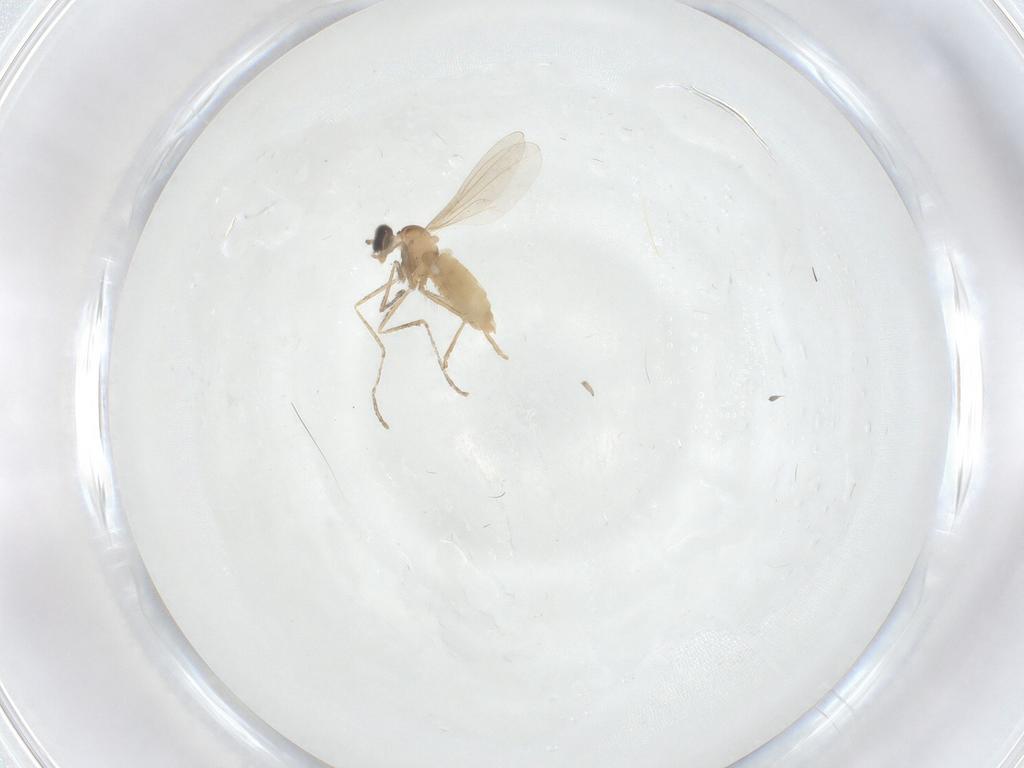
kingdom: Animalia
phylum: Arthropoda
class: Insecta
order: Diptera
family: Cecidomyiidae
